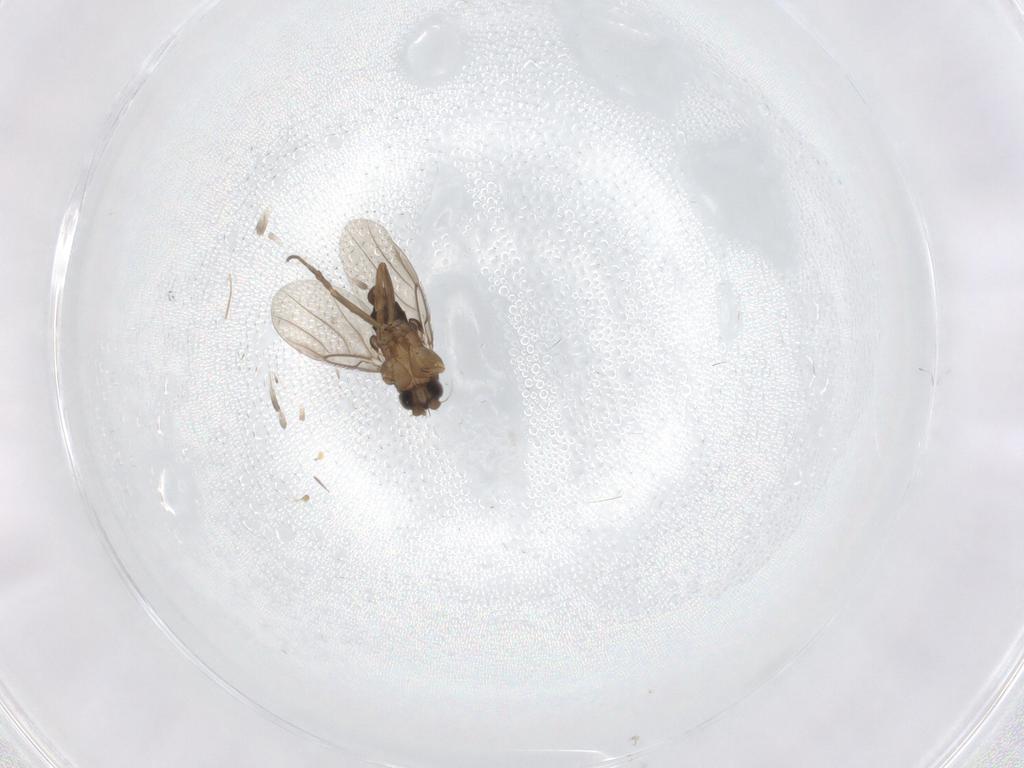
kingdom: Animalia
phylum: Arthropoda
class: Insecta
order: Diptera
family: Chironomidae
